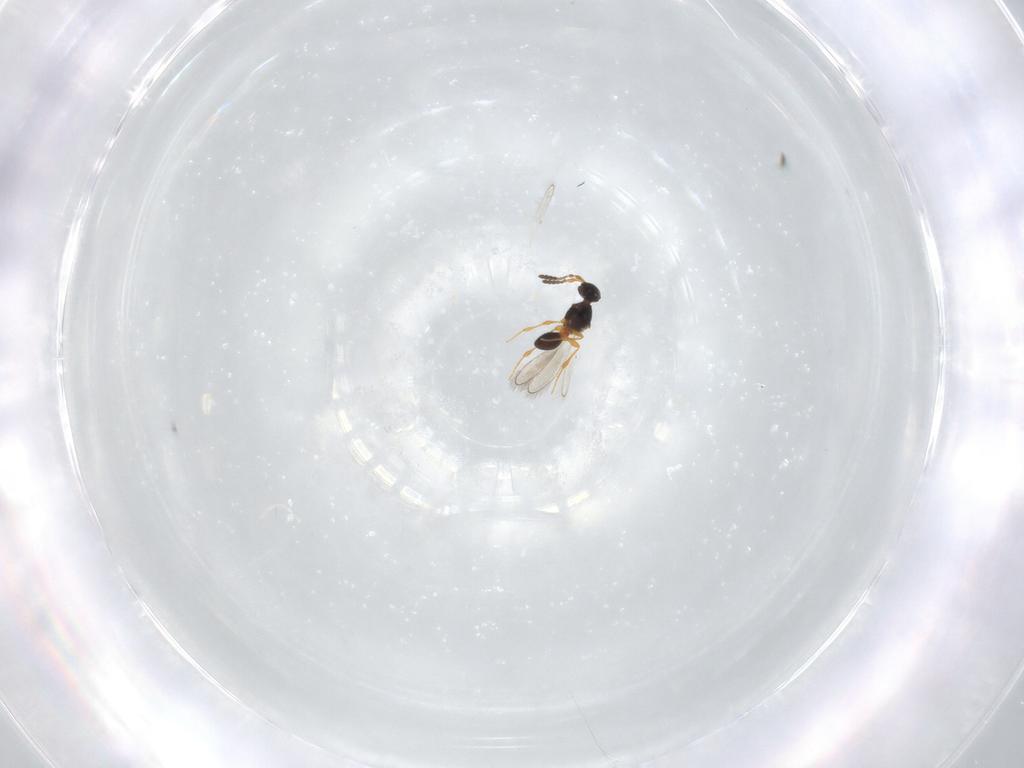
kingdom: Animalia
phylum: Arthropoda
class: Insecta
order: Hymenoptera
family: Platygastridae
